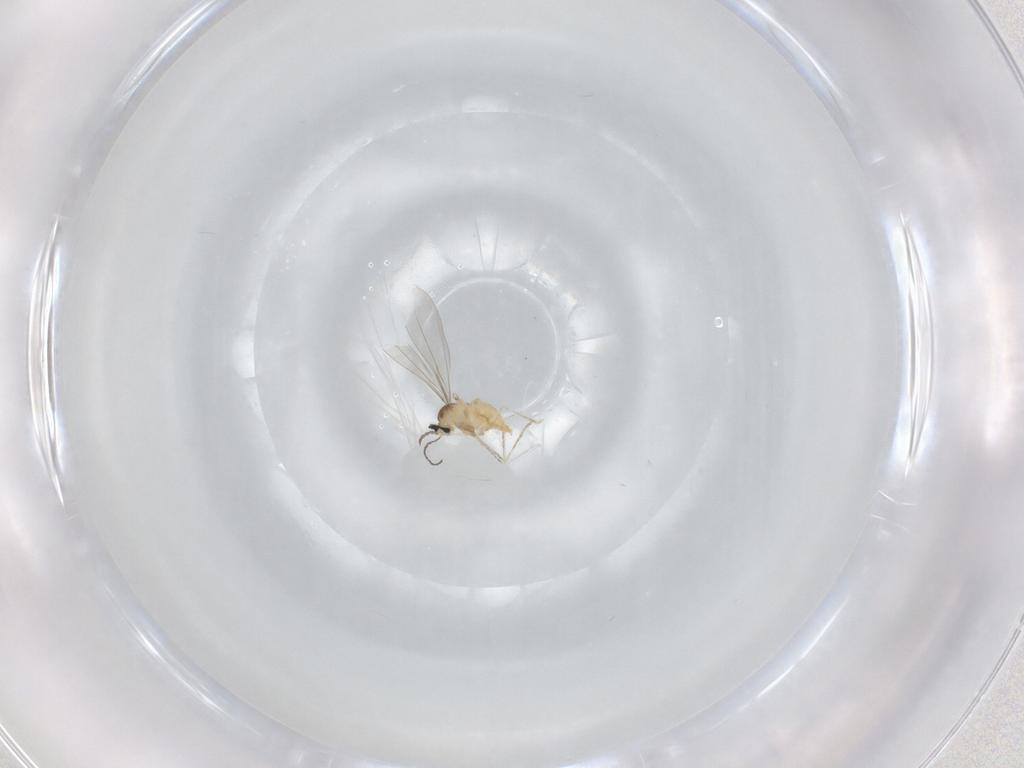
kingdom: Animalia
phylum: Arthropoda
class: Insecta
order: Diptera
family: Cecidomyiidae
